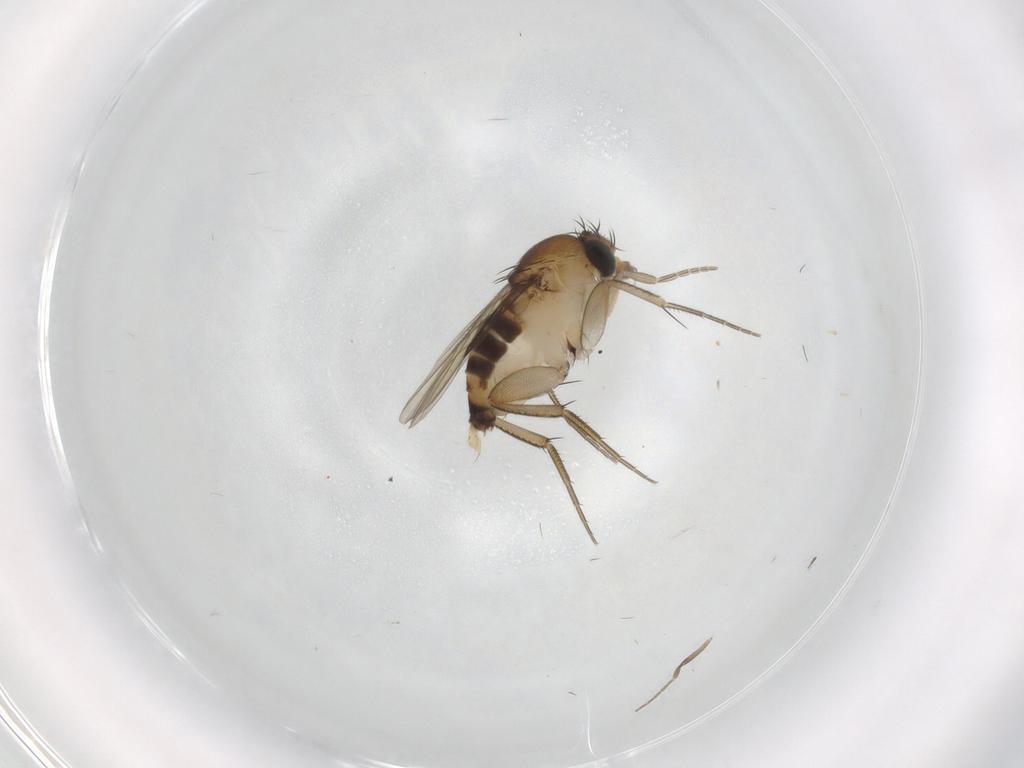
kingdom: Animalia
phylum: Arthropoda
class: Insecta
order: Diptera
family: Phoridae
